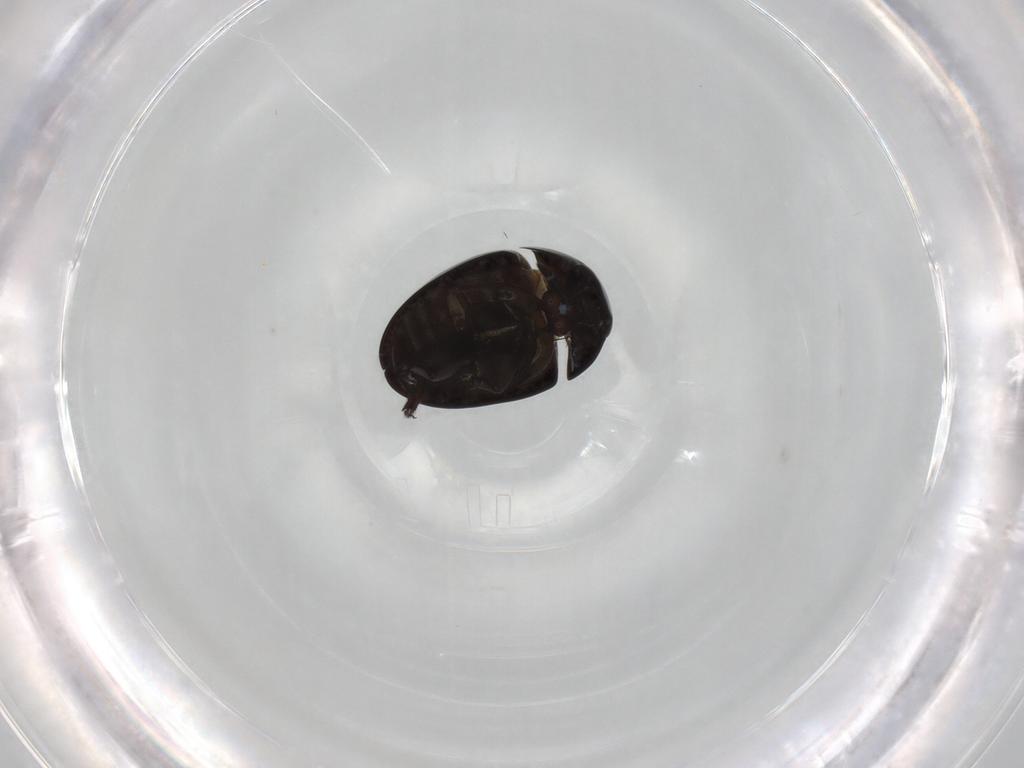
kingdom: Animalia
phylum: Arthropoda
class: Insecta
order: Coleoptera
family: Phalacridae
